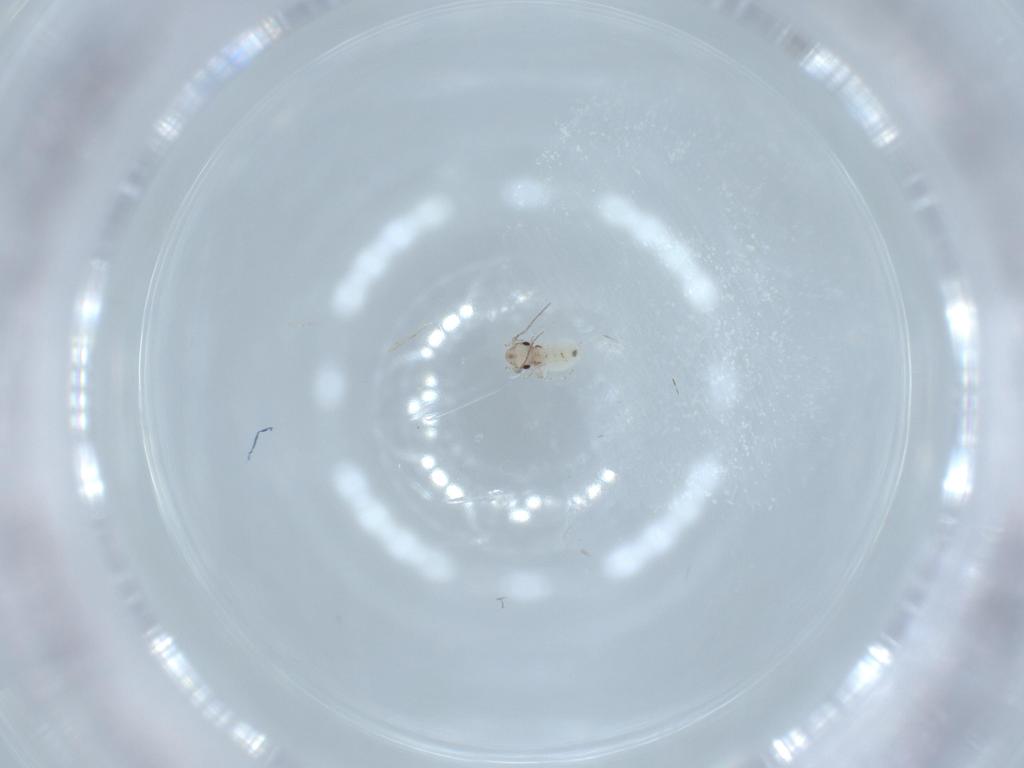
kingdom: Animalia
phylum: Arthropoda
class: Insecta
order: Psocodea
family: Lepidopsocidae
